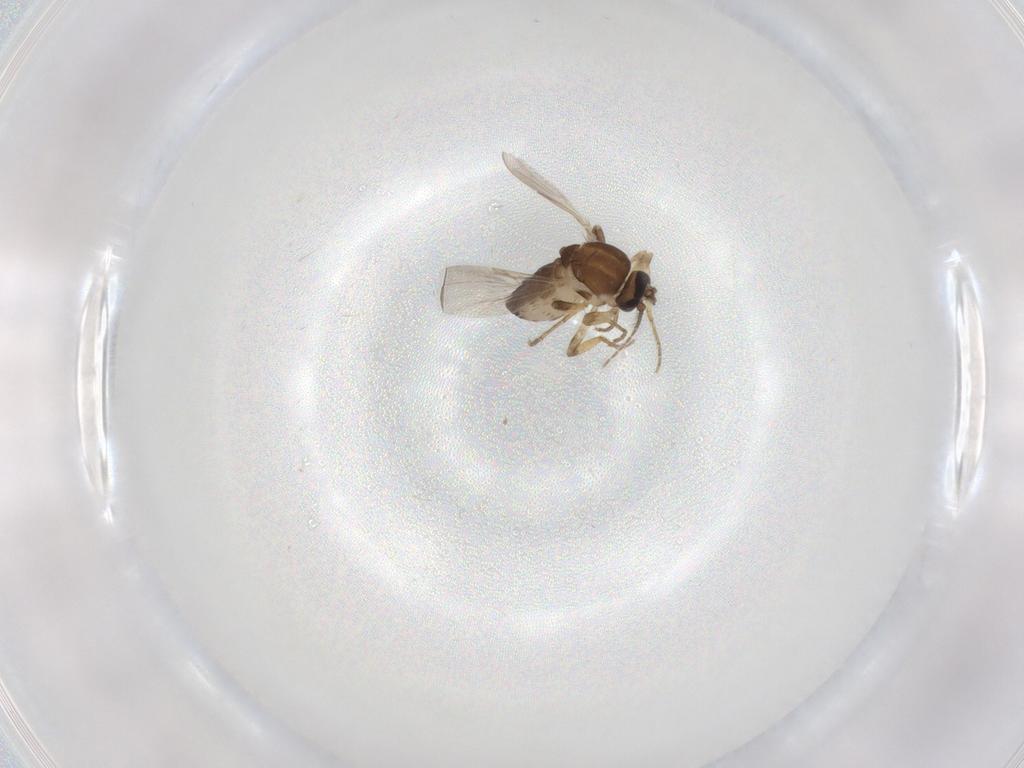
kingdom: Animalia
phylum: Arthropoda
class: Insecta
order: Diptera
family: Ceratopogonidae
